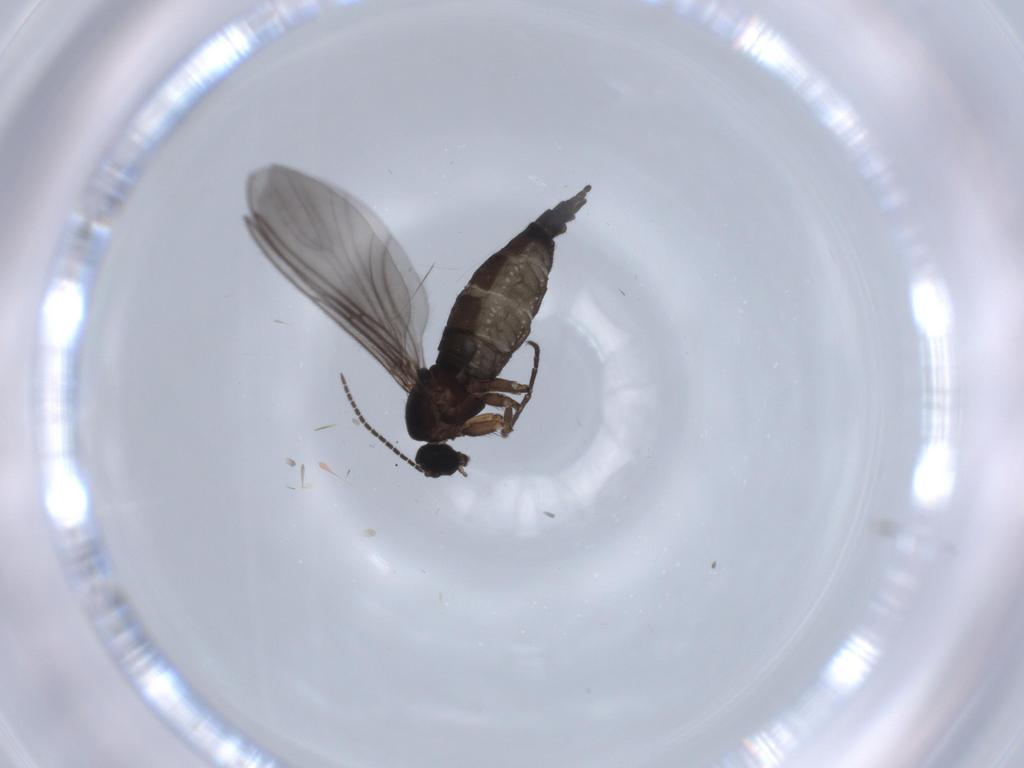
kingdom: Animalia
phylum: Arthropoda
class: Insecta
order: Diptera
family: Sciaridae
